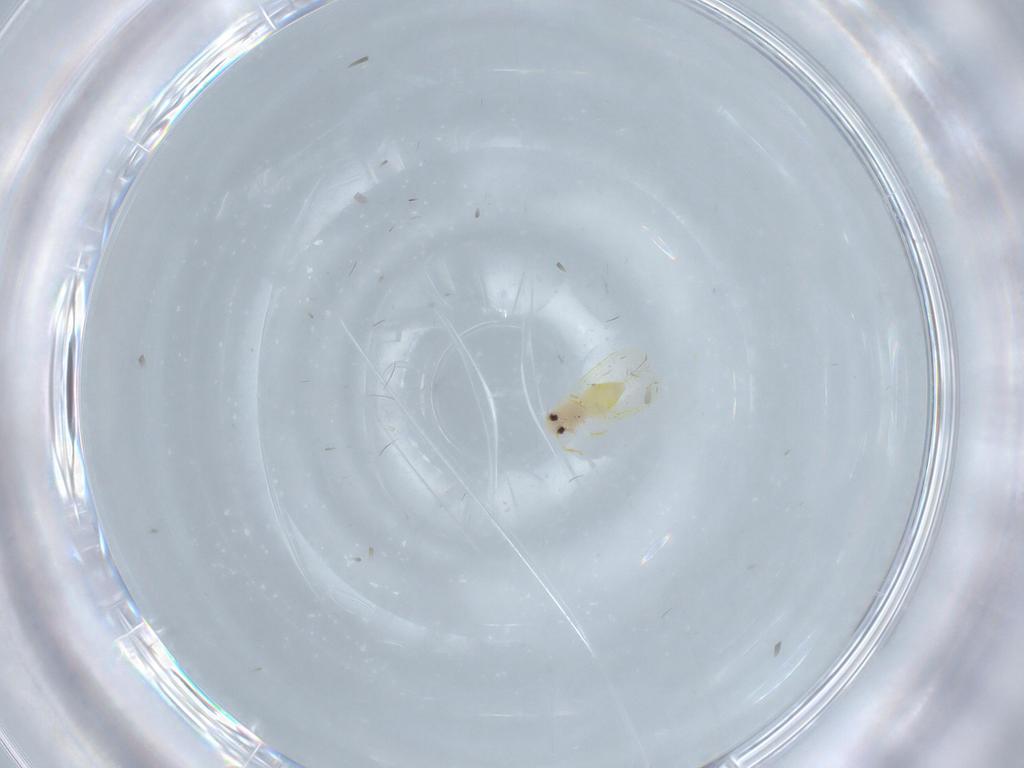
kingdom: Animalia
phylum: Arthropoda
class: Insecta
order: Hemiptera
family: Cicadellidae
